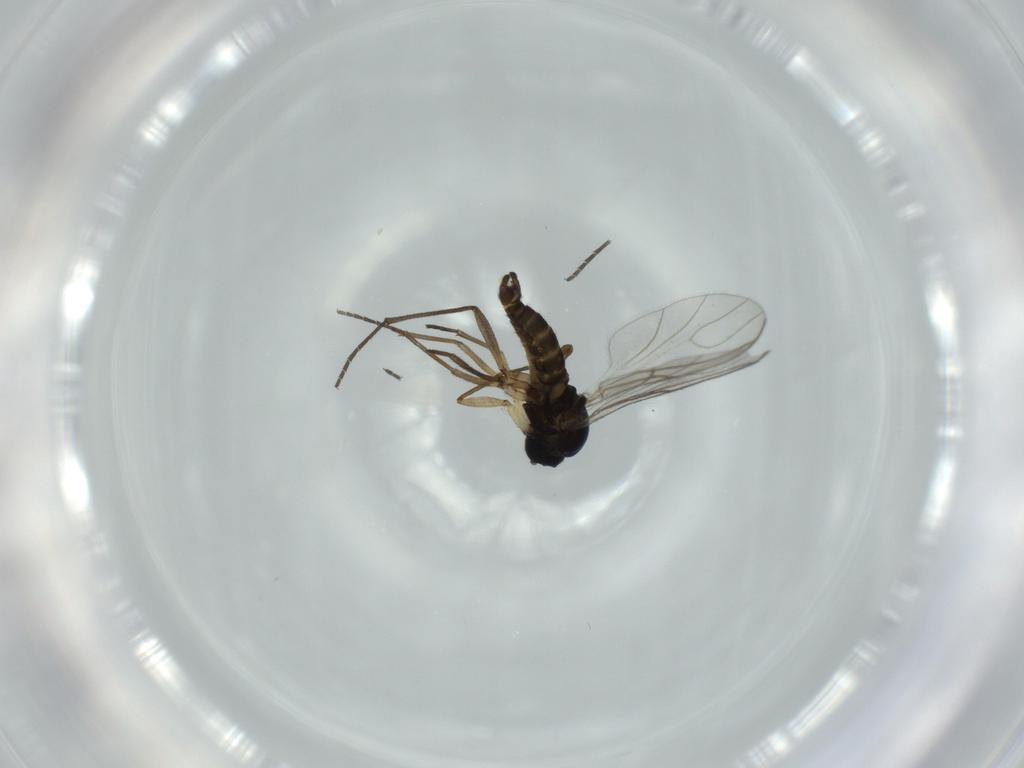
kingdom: Animalia
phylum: Arthropoda
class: Insecta
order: Diptera
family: Sciaridae
